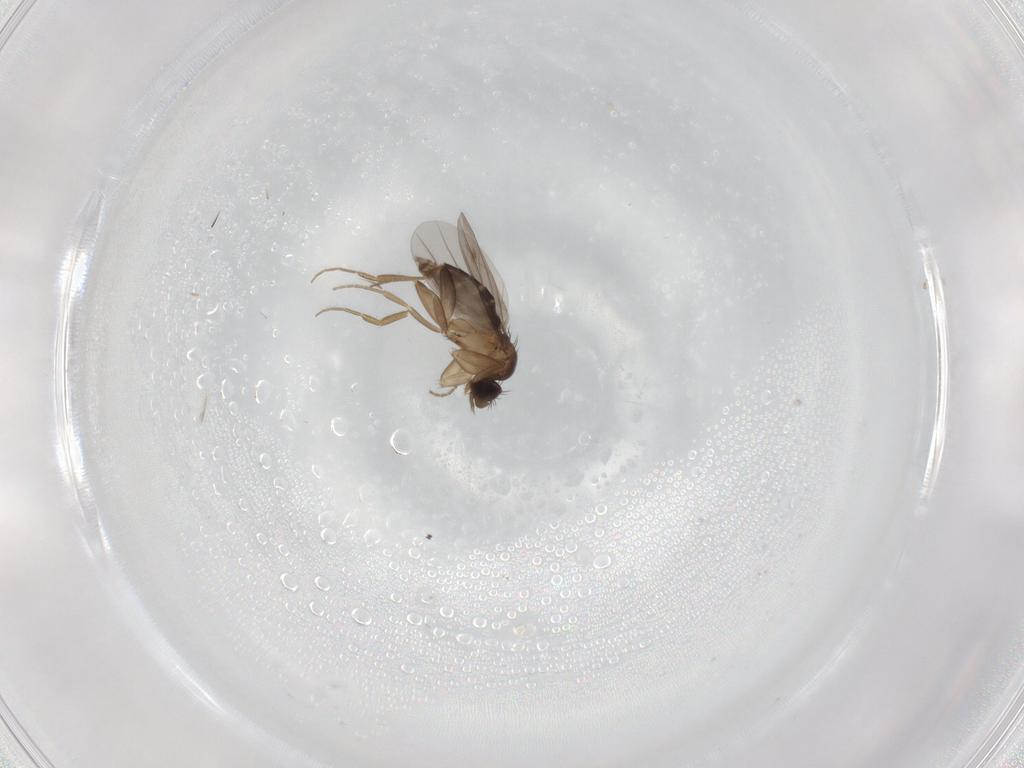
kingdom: Animalia
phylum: Arthropoda
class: Insecta
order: Diptera
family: Phoridae
